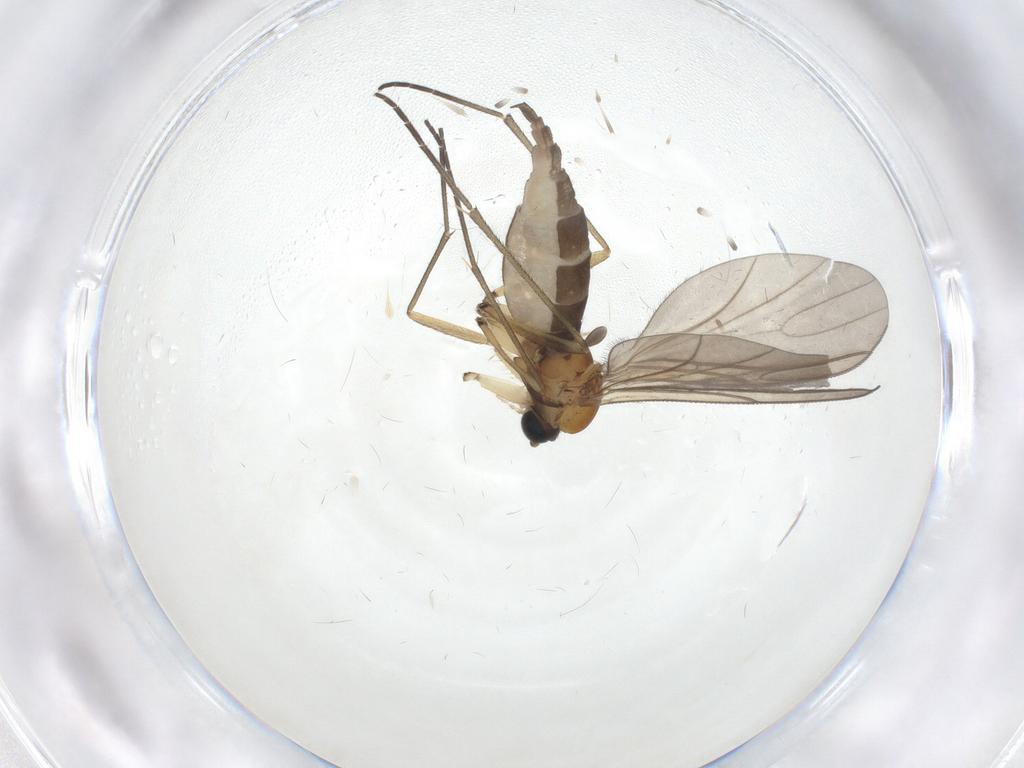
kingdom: Animalia
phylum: Arthropoda
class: Insecta
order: Diptera
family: Sciaridae
